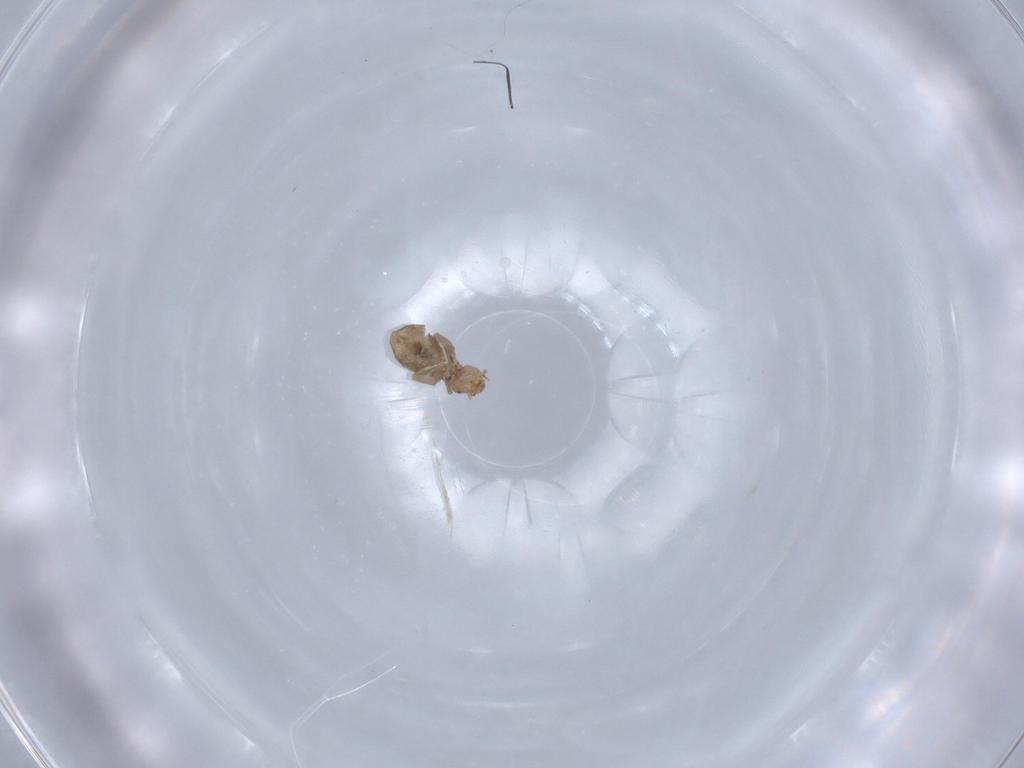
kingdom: Animalia
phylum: Arthropoda
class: Insecta
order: Psocodea
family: Liposcelididae
